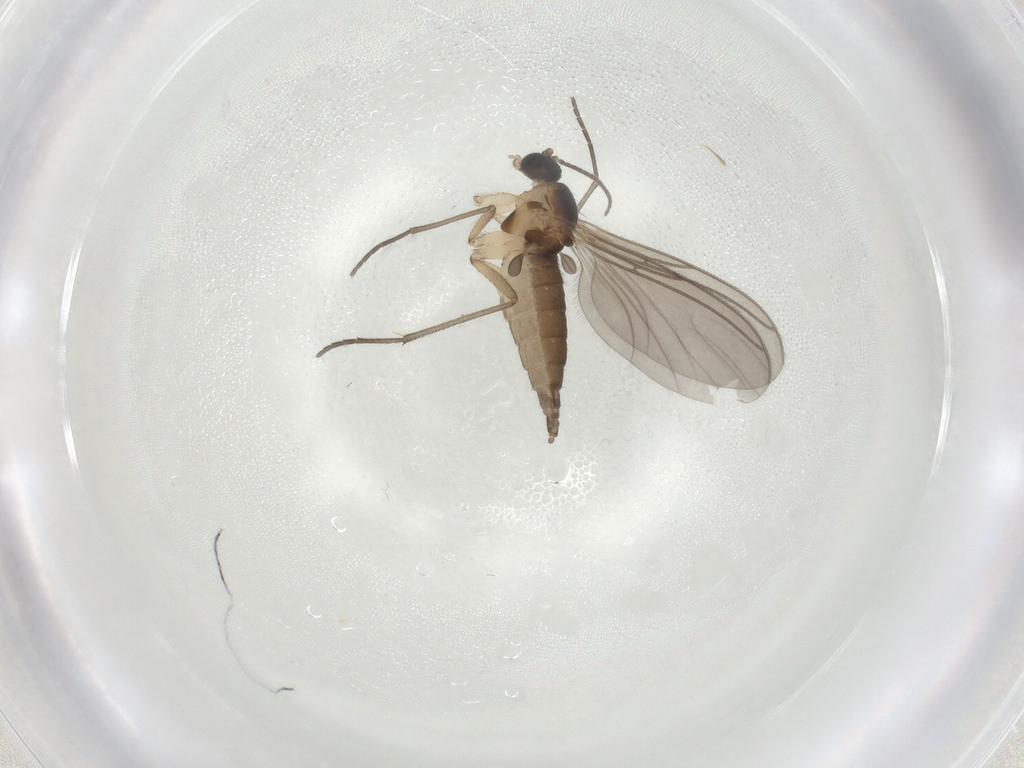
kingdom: Animalia
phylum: Arthropoda
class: Insecta
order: Diptera
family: Sciaridae
